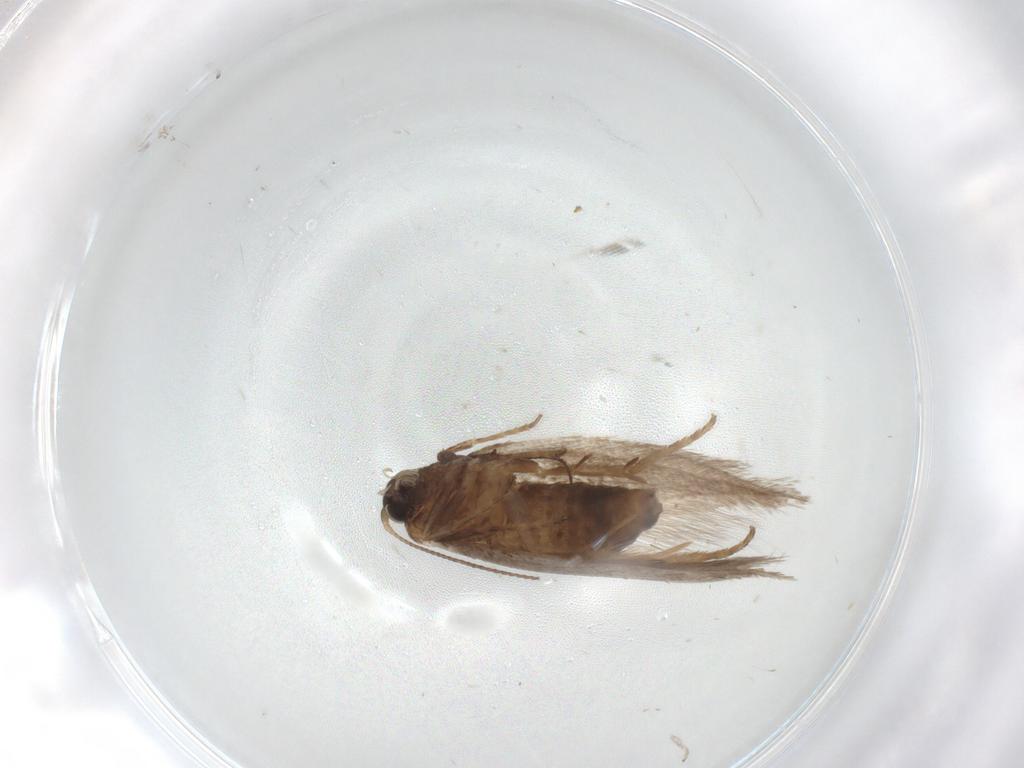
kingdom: Animalia
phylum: Arthropoda
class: Insecta
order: Lepidoptera
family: Nepticulidae
